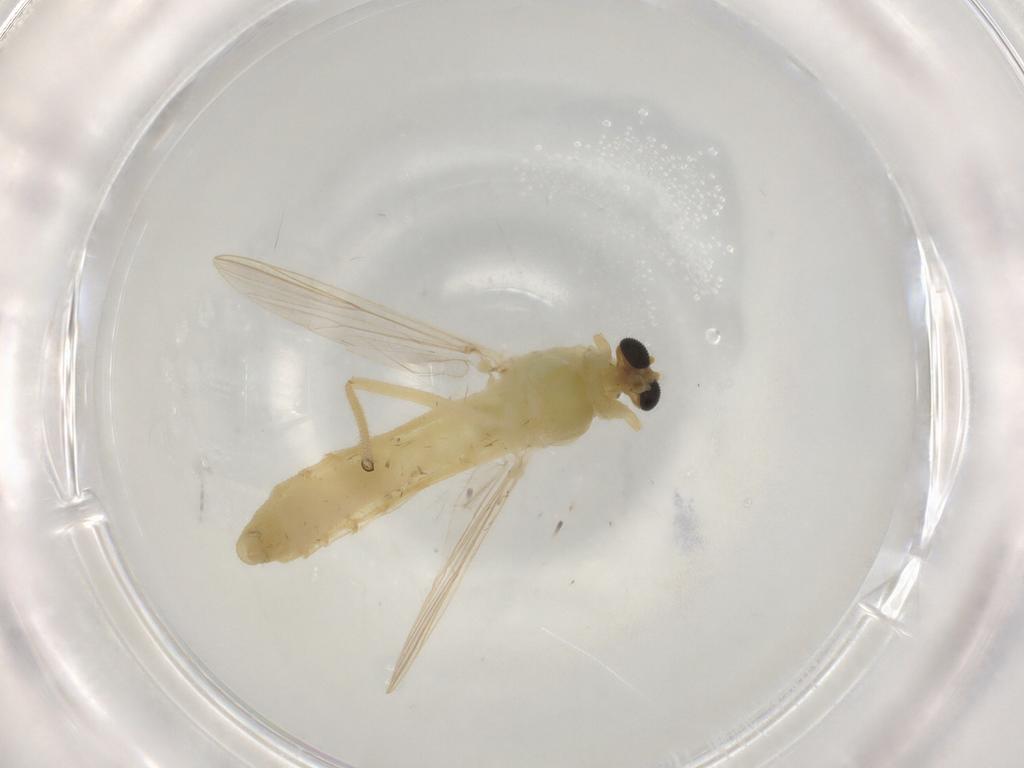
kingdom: Animalia
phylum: Arthropoda
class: Insecta
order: Diptera
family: Chironomidae
